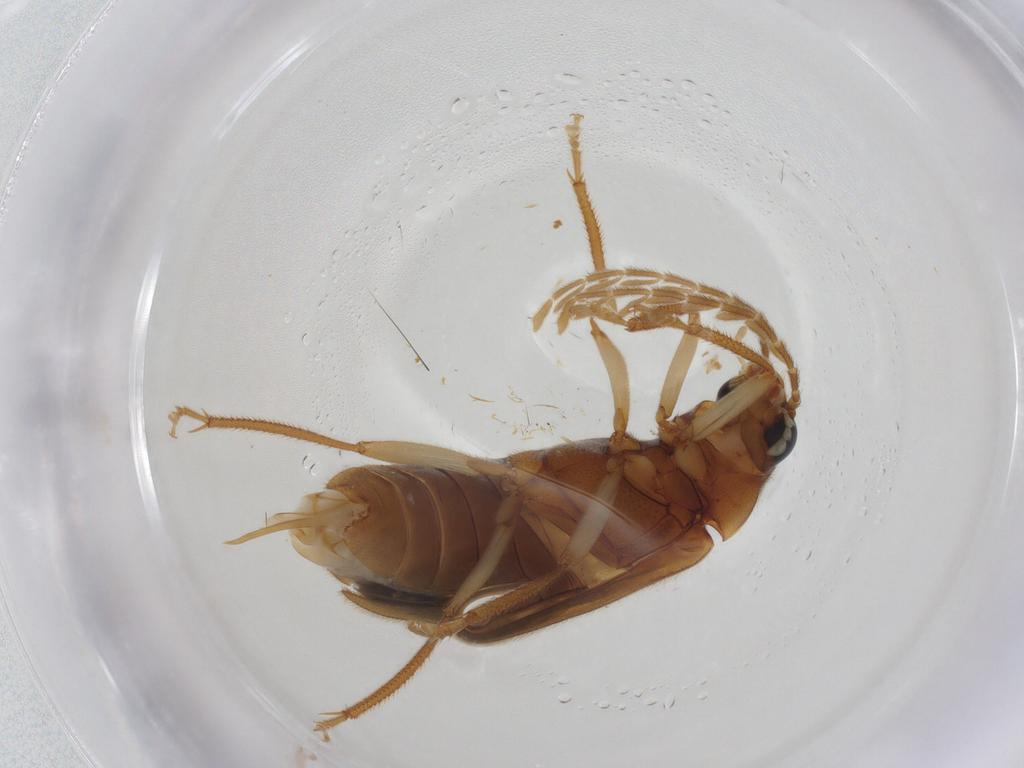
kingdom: Animalia
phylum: Arthropoda
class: Insecta
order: Coleoptera
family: Ptilodactylidae
